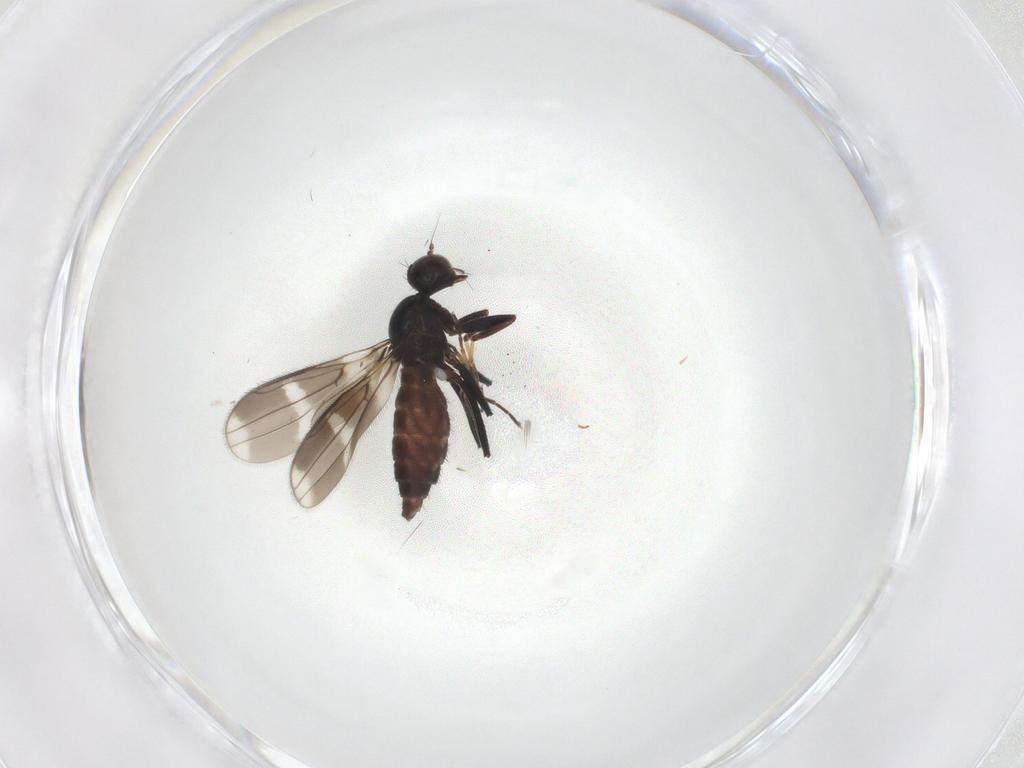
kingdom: Animalia
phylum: Arthropoda
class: Insecta
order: Diptera
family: Hybotidae
